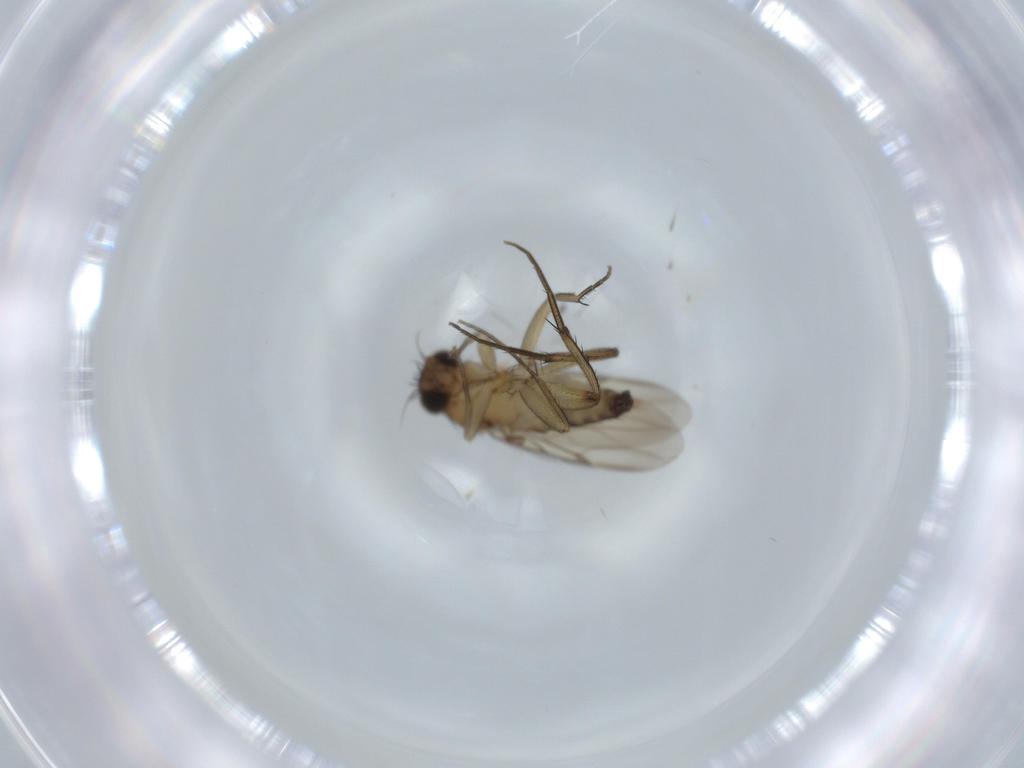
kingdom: Animalia
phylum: Arthropoda
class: Insecta
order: Diptera
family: Phoridae
